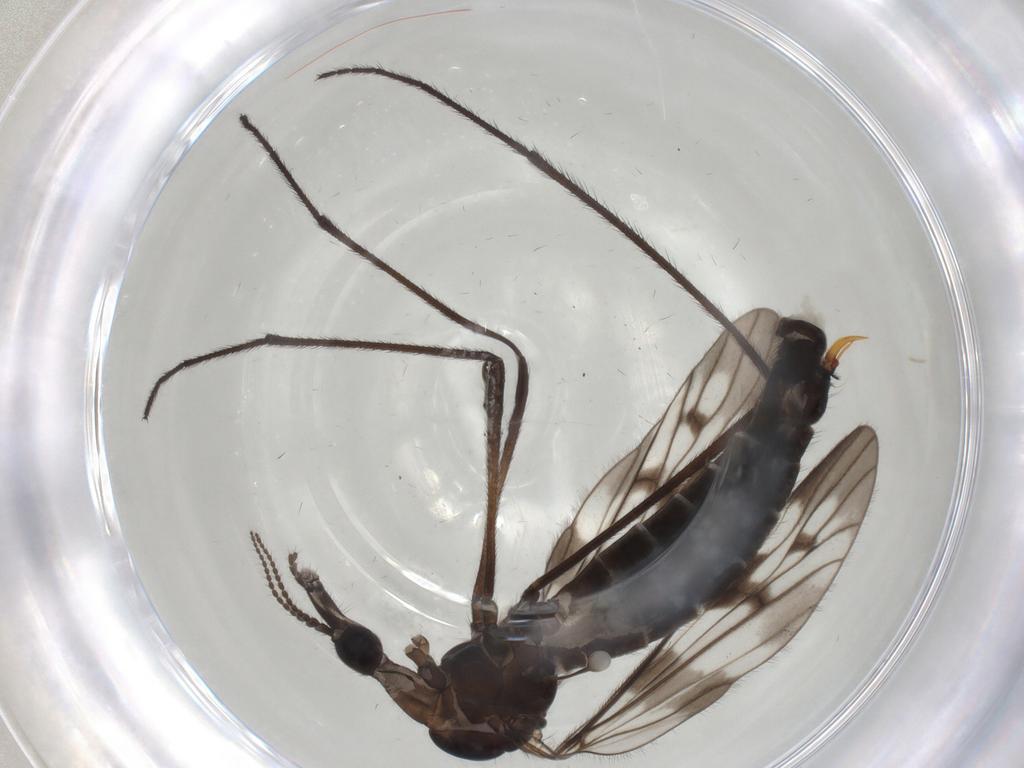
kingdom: Animalia
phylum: Arthropoda
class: Insecta
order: Diptera
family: Limoniidae
